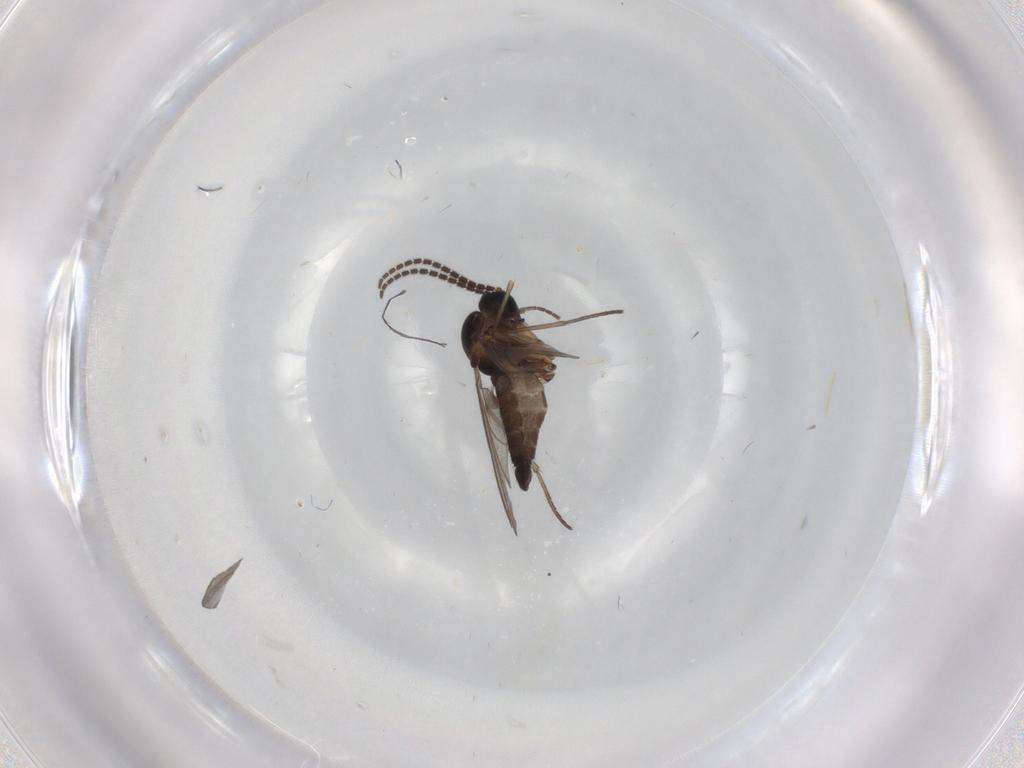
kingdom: Animalia
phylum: Arthropoda
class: Insecta
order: Diptera
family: Sciaridae
